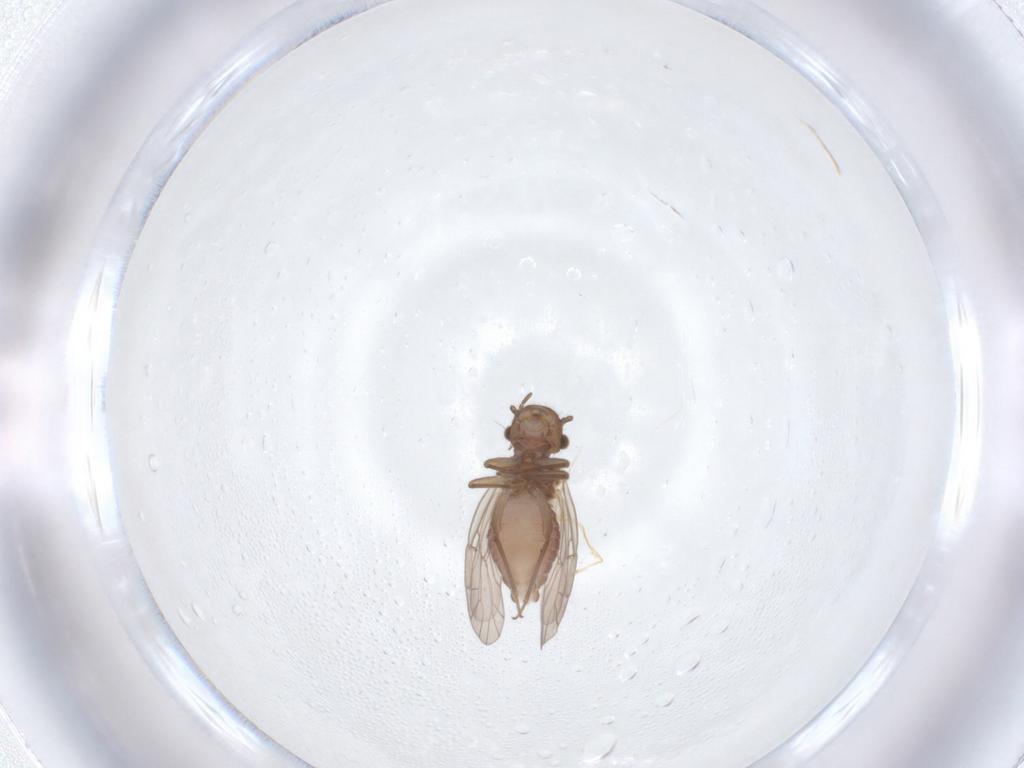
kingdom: Animalia
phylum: Arthropoda
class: Insecta
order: Psocodea
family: Ectopsocidae
